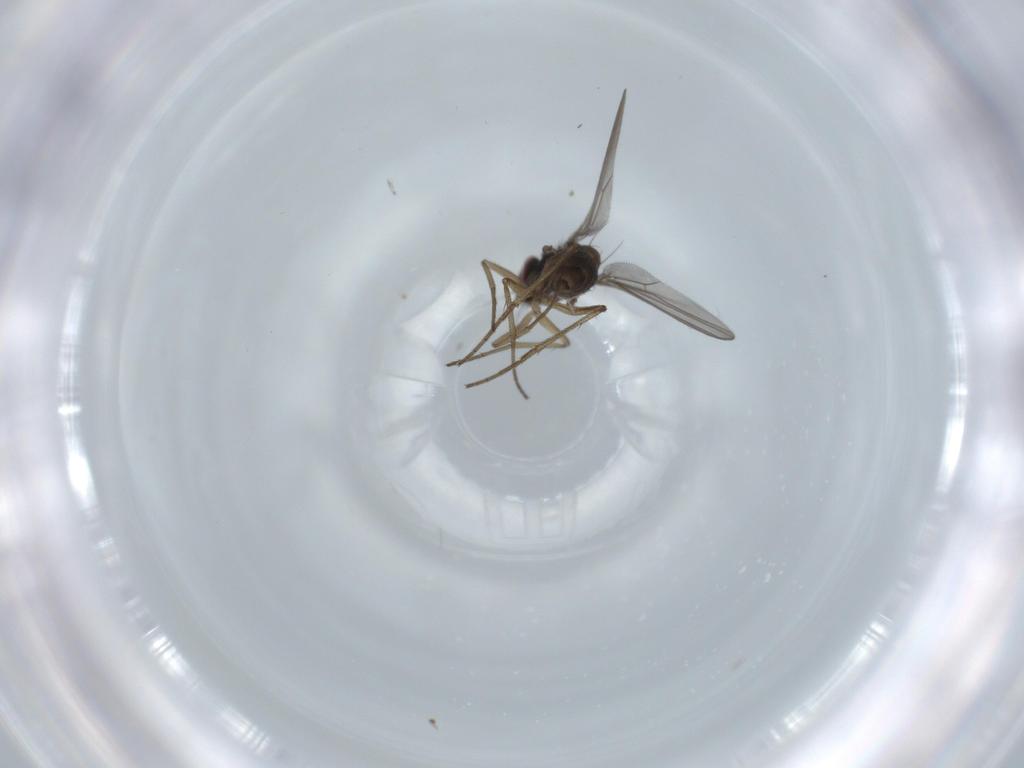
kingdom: Animalia
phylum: Arthropoda
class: Insecta
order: Diptera
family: Dolichopodidae
